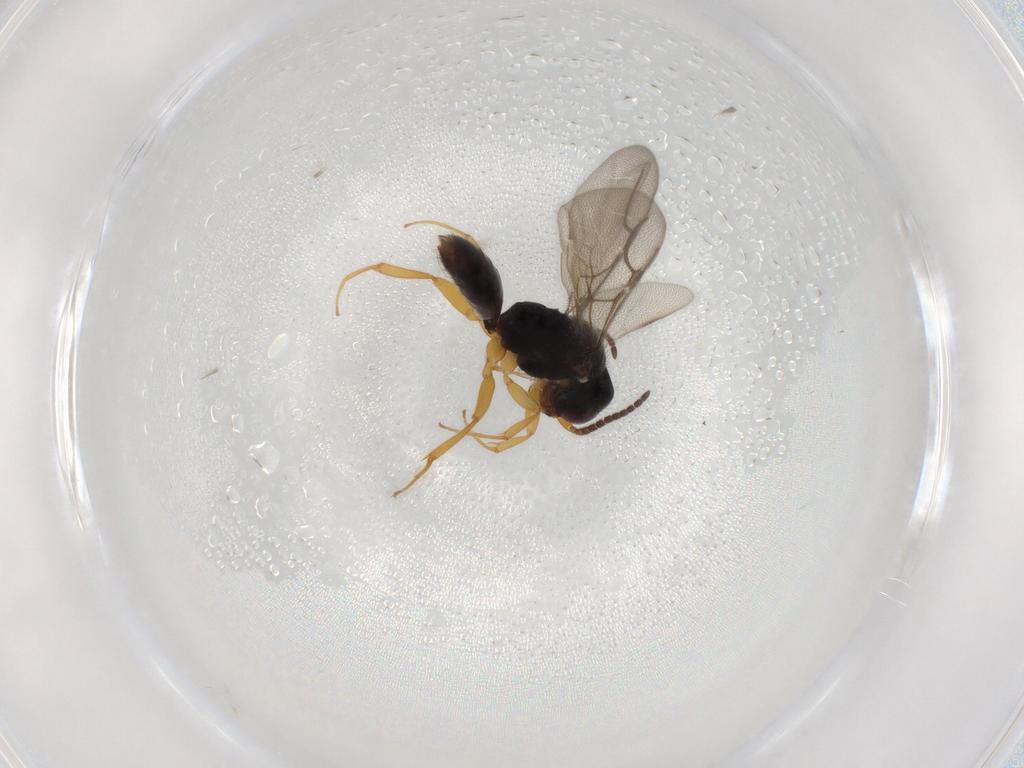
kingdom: Animalia
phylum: Arthropoda
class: Insecta
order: Hymenoptera
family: Bethylidae
